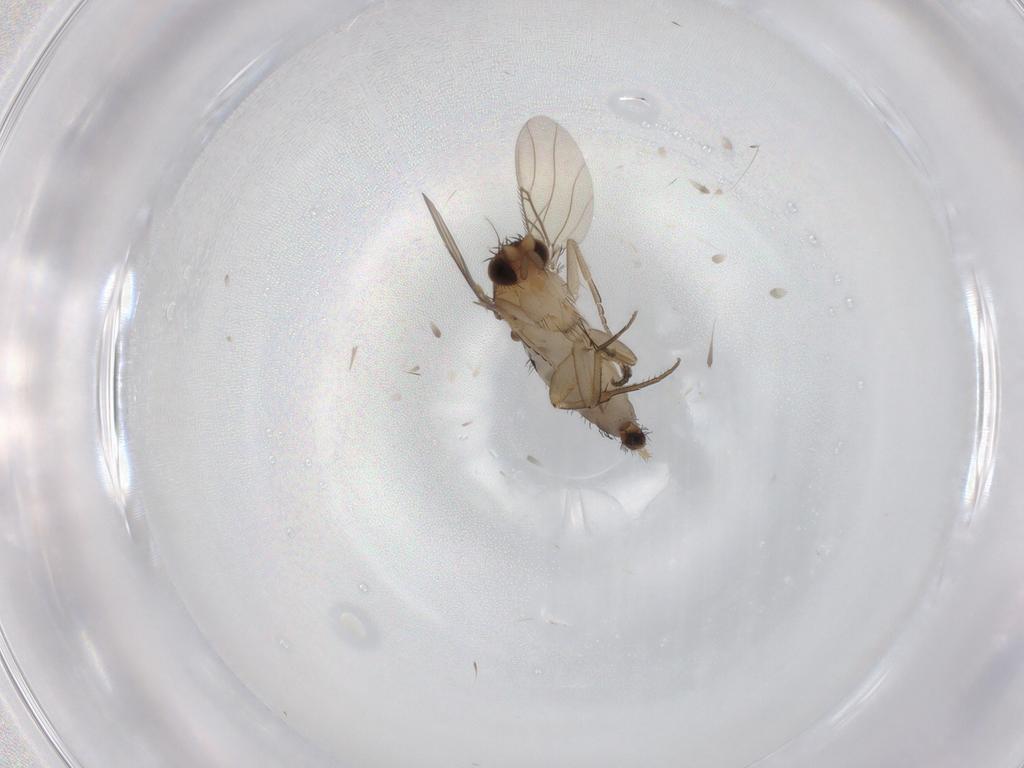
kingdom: Animalia
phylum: Arthropoda
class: Insecta
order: Diptera
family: Phoridae
